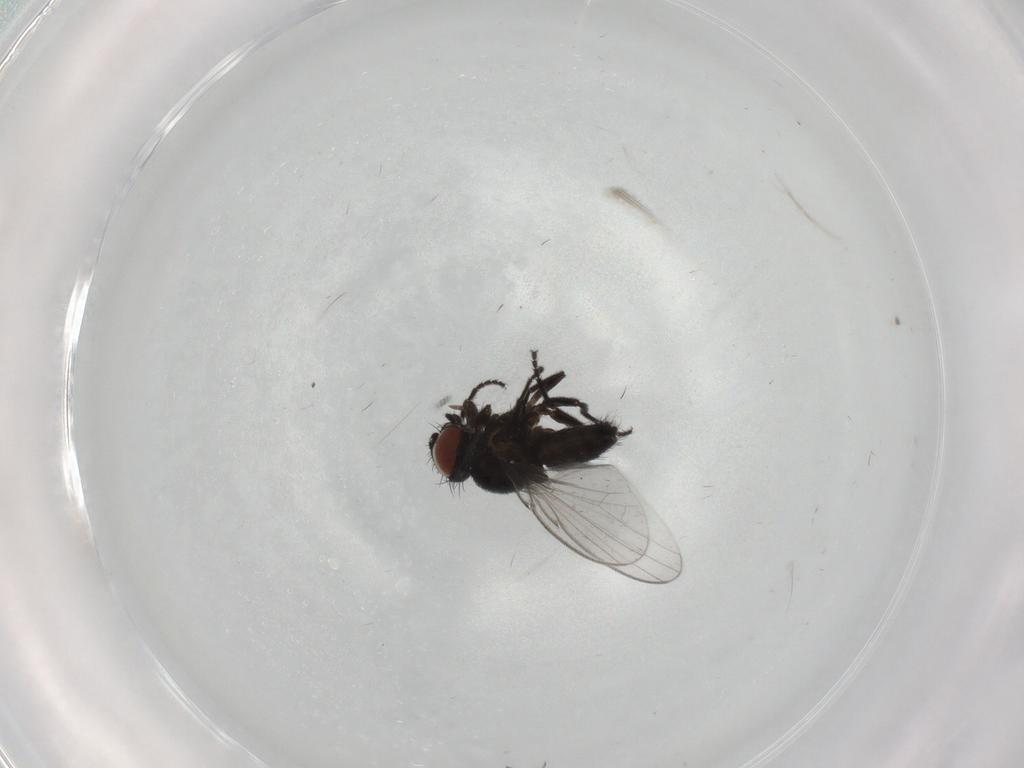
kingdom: Animalia
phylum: Arthropoda
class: Insecta
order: Diptera
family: Milichiidae
